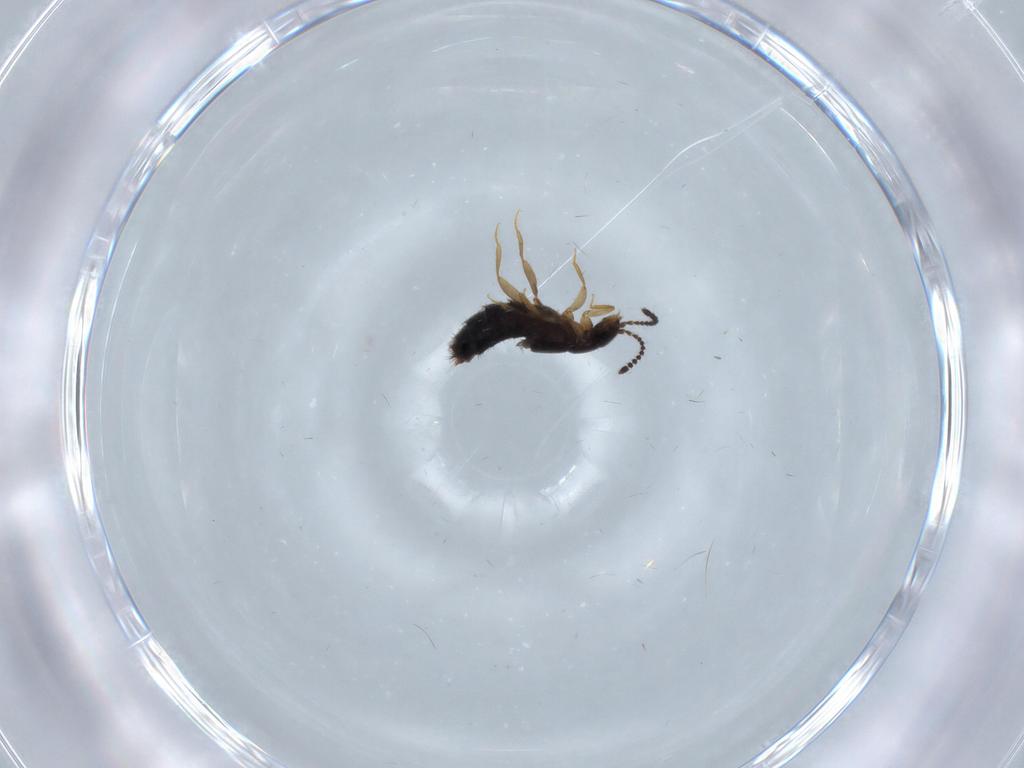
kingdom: Animalia
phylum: Arthropoda
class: Insecta
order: Coleoptera
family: Staphylinidae
